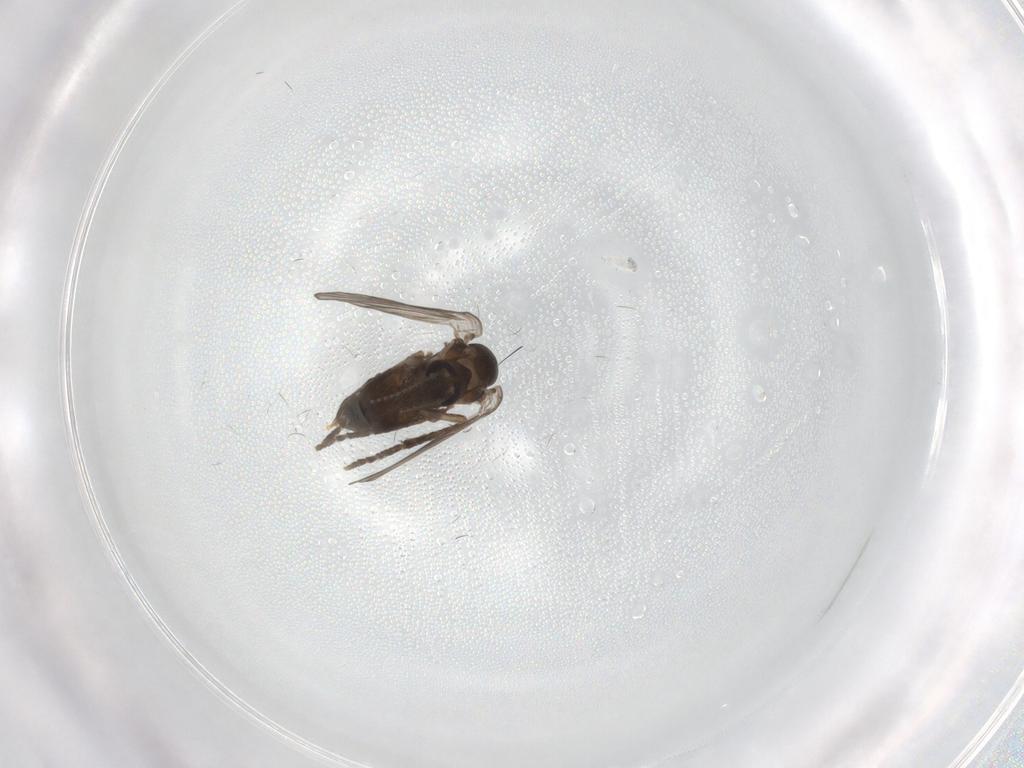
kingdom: Animalia
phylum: Arthropoda
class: Insecta
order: Diptera
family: Psychodidae
